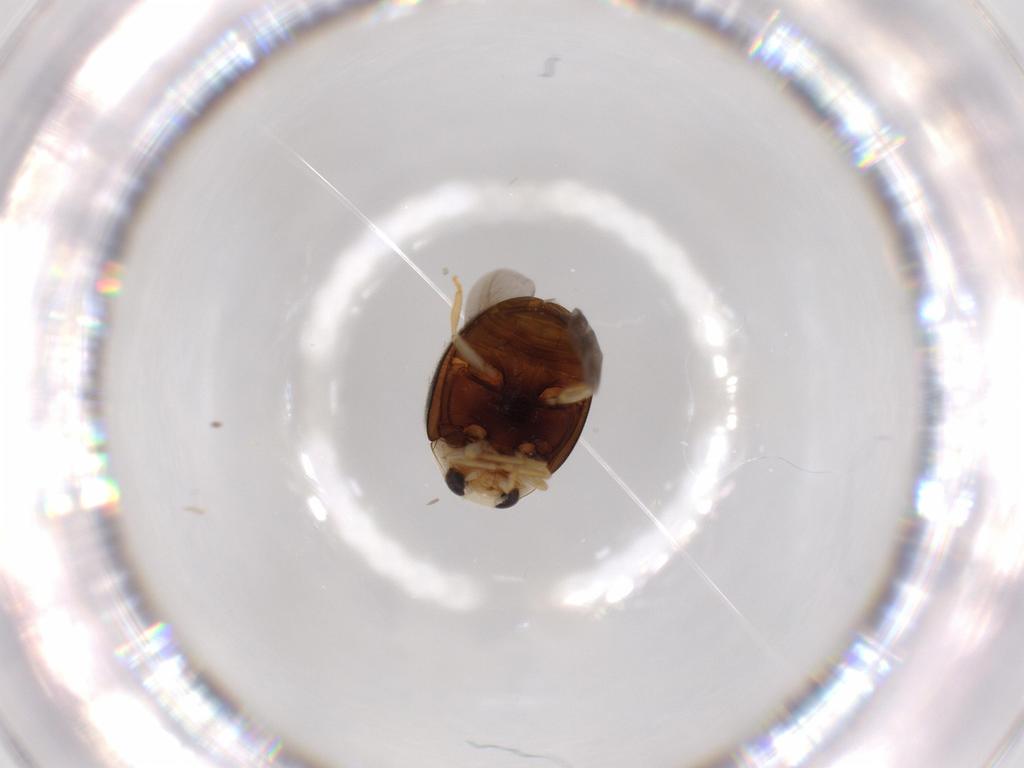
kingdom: Animalia
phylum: Arthropoda
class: Insecta
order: Coleoptera
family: Coccinellidae
